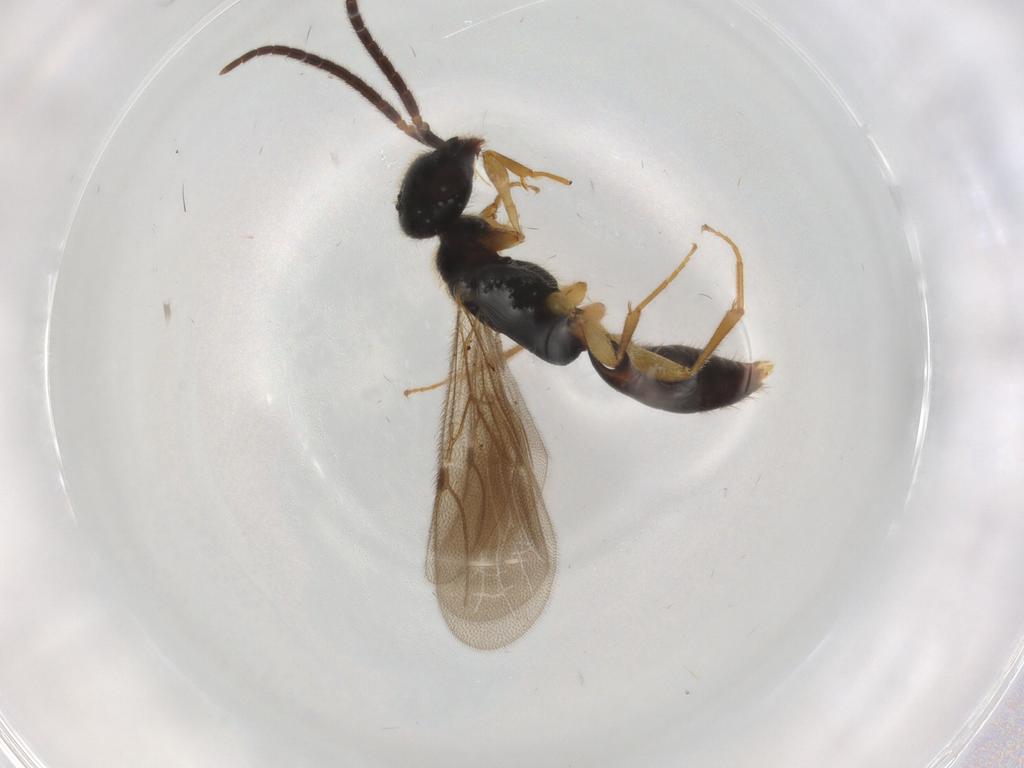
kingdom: Animalia
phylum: Arthropoda
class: Insecta
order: Hymenoptera
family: Bethylidae
